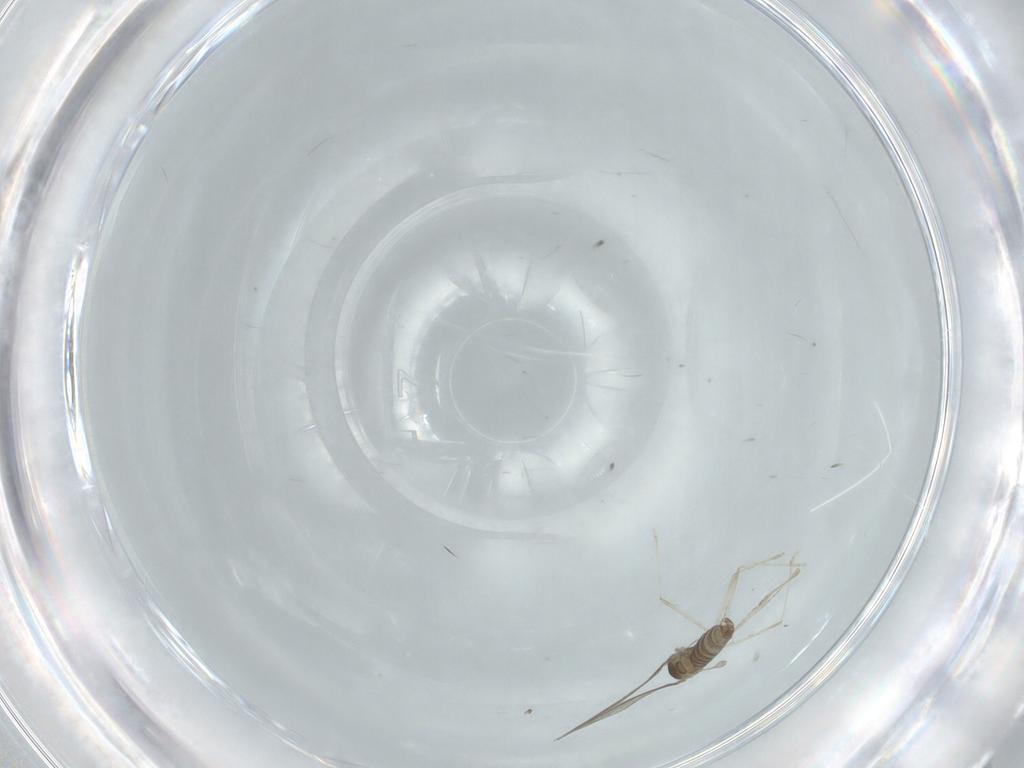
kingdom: Animalia
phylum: Arthropoda
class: Insecta
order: Diptera
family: Cecidomyiidae
